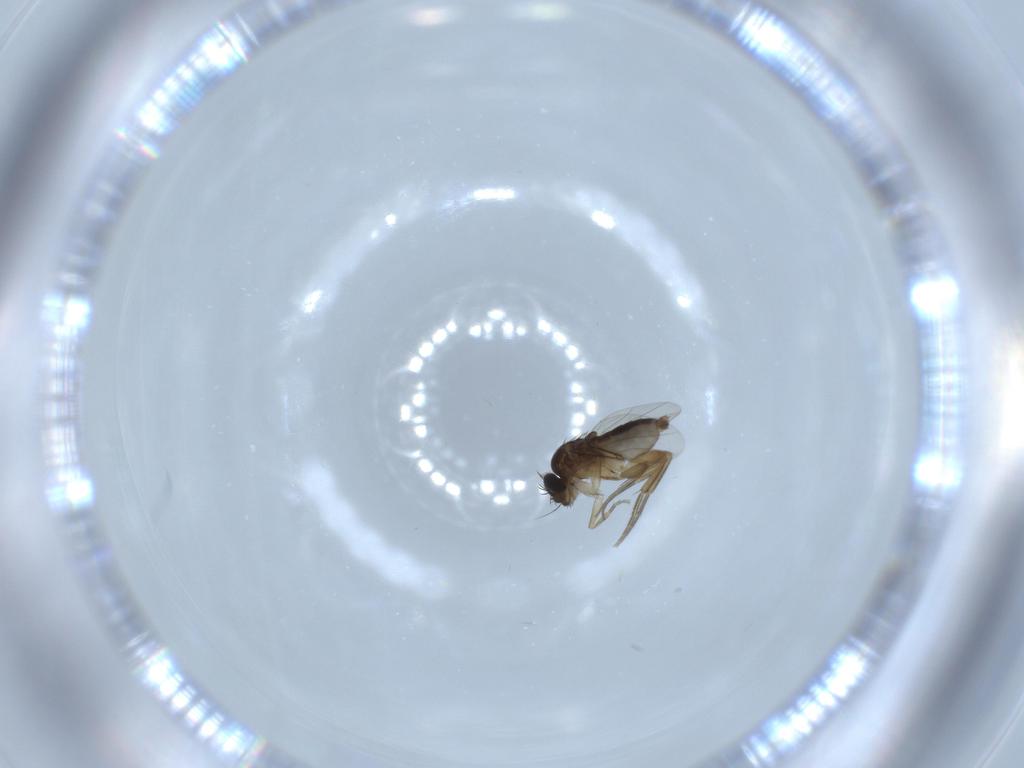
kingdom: Animalia
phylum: Arthropoda
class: Insecta
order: Diptera
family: Phoridae
